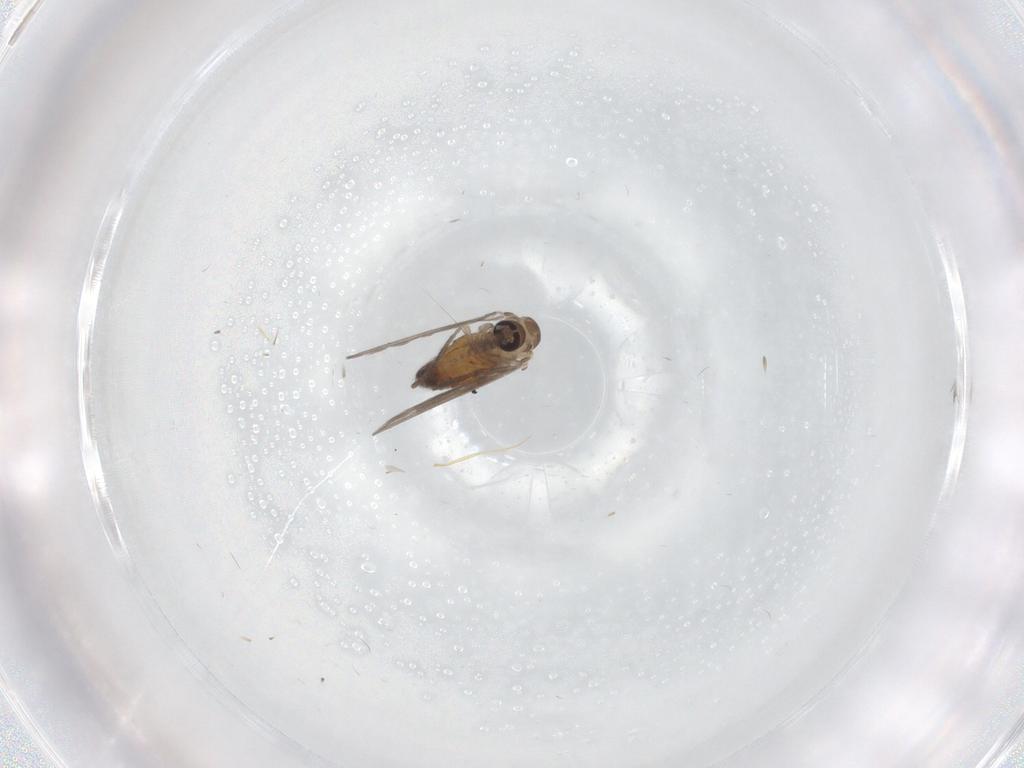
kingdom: Animalia
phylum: Arthropoda
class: Insecta
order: Diptera
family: Psychodidae
